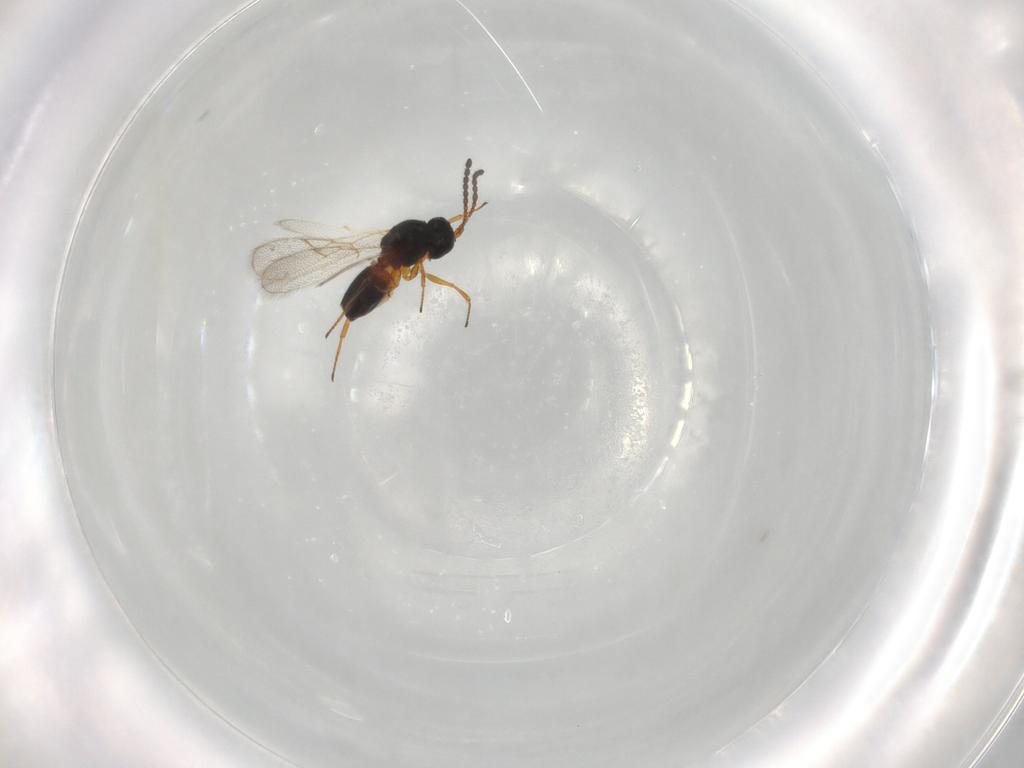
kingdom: Animalia
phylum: Arthropoda
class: Insecta
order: Hymenoptera
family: Figitidae
